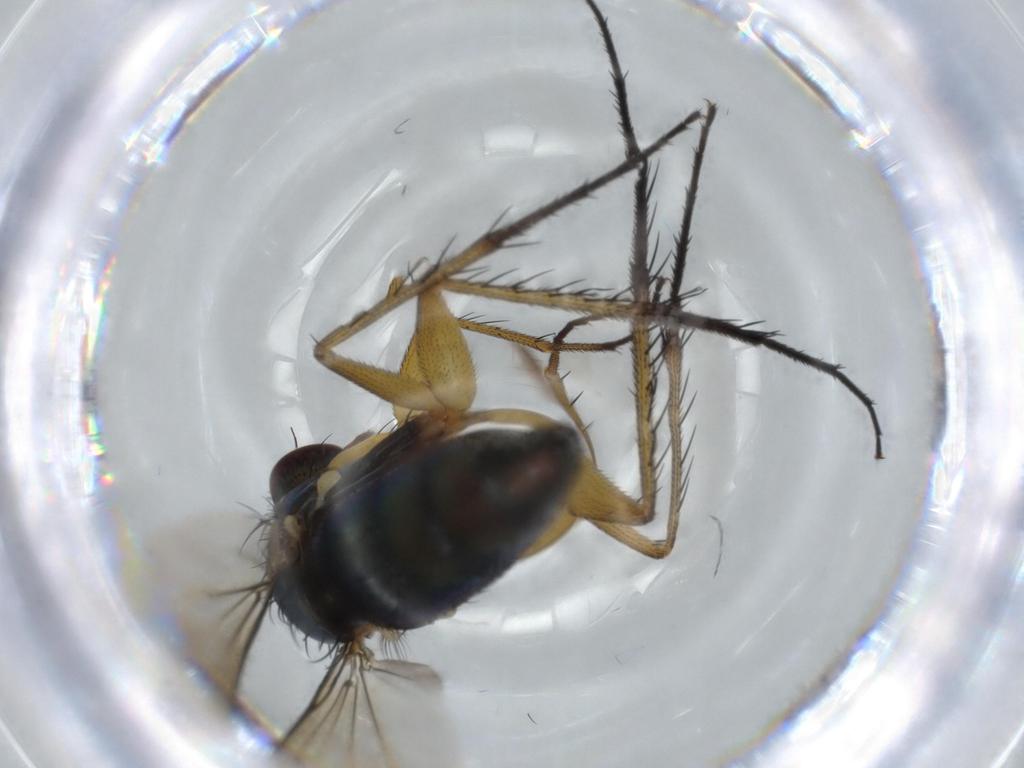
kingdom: Animalia
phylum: Arthropoda
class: Insecta
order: Diptera
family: Dolichopodidae
